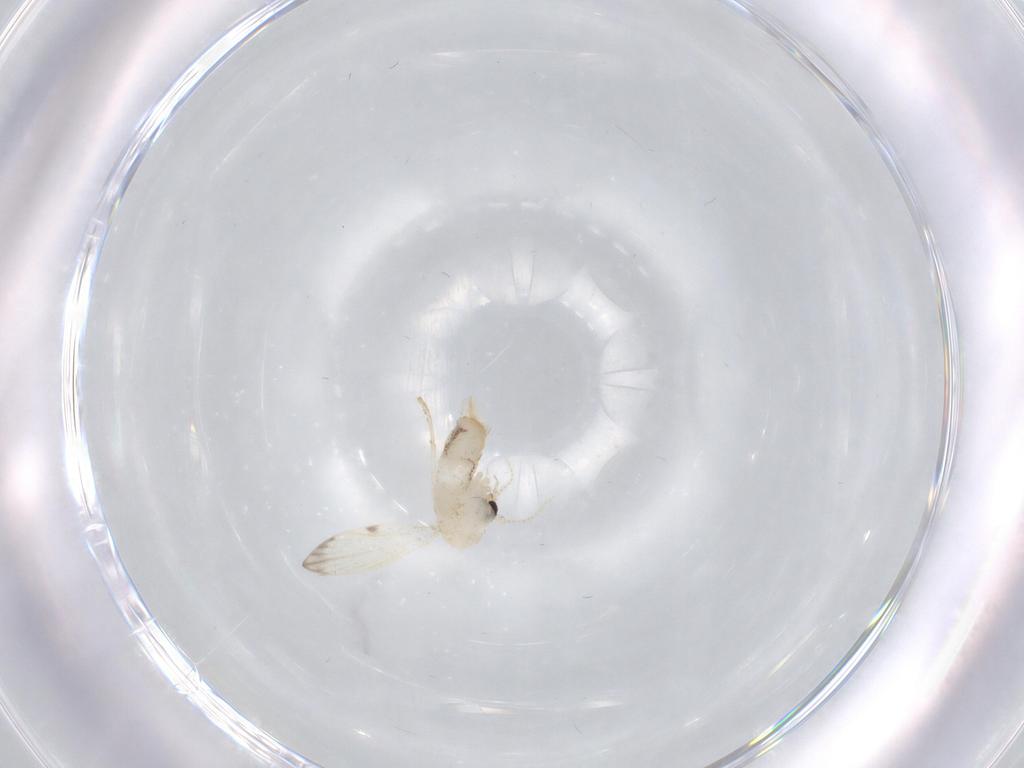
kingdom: Animalia
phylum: Arthropoda
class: Insecta
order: Diptera
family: Psychodidae
